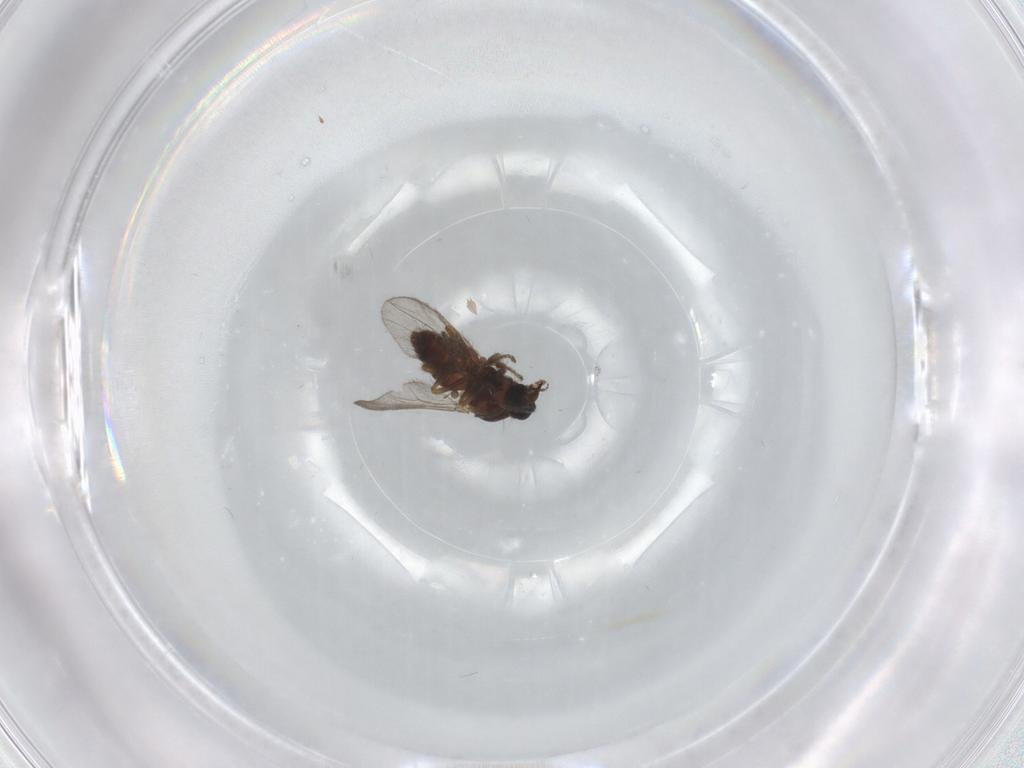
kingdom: Animalia
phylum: Arthropoda
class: Insecta
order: Diptera
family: Ceratopogonidae
